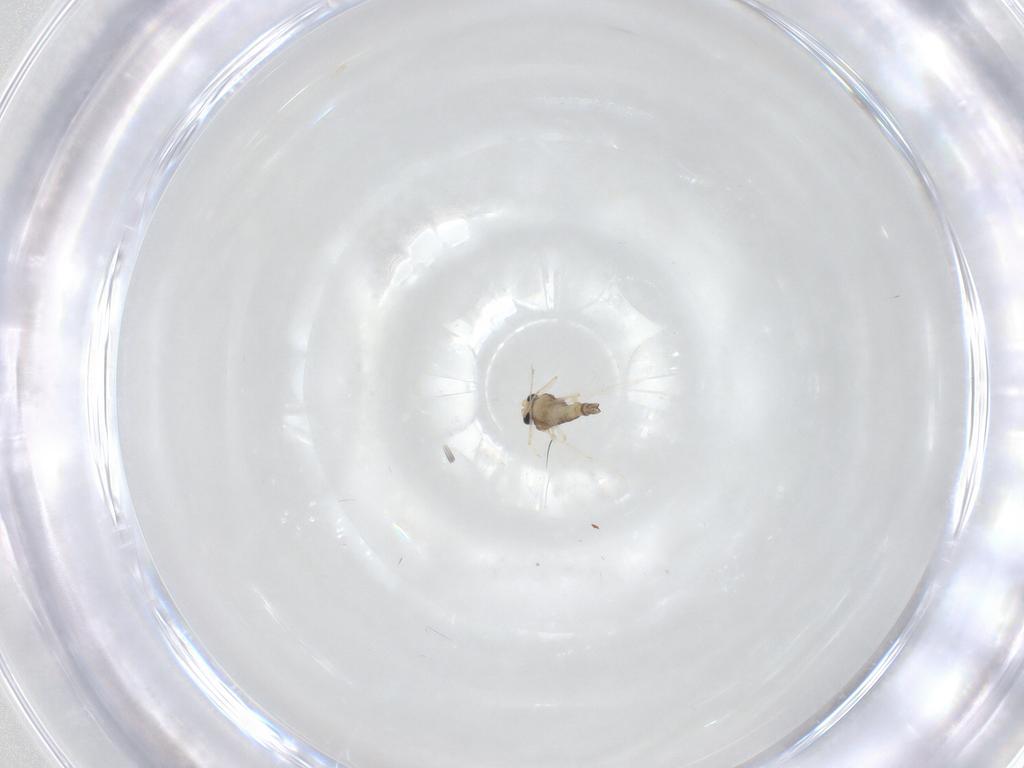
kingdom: Animalia
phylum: Arthropoda
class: Insecta
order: Diptera
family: Chironomidae
